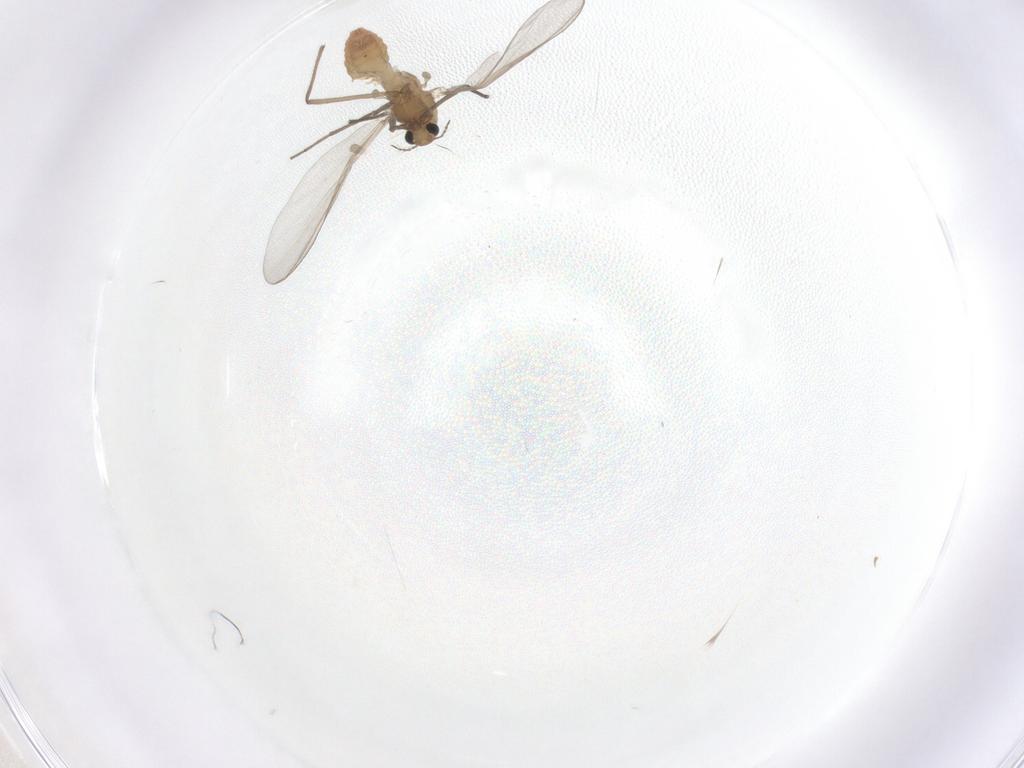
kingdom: Animalia
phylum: Arthropoda
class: Insecta
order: Diptera
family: Chironomidae
